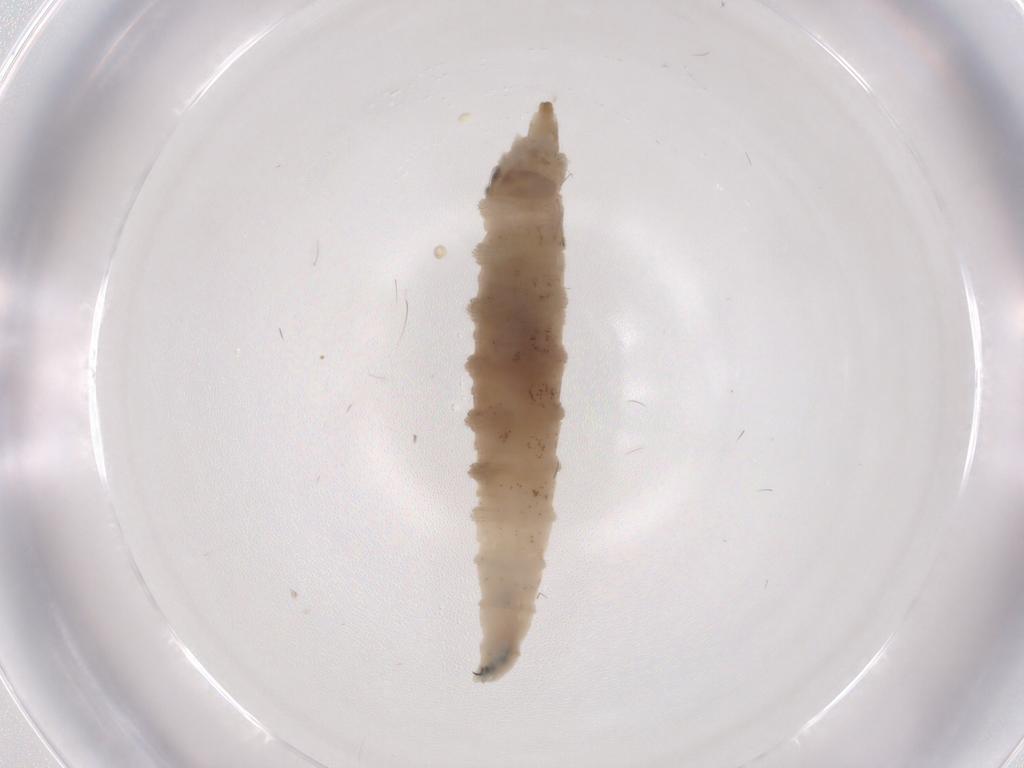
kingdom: Animalia
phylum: Arthropoda
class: Insecta
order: Diptera
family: Drosophilidae
